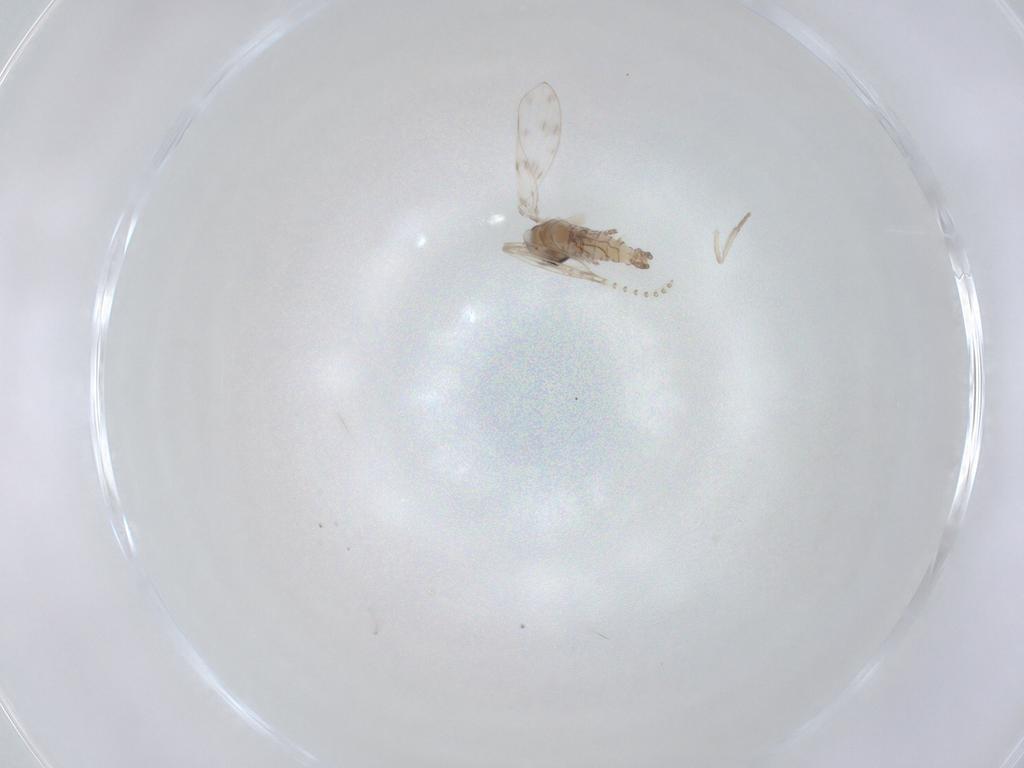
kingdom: Animalia
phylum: Arthropoda
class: Insecta
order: Diptera
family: Psychodidae
